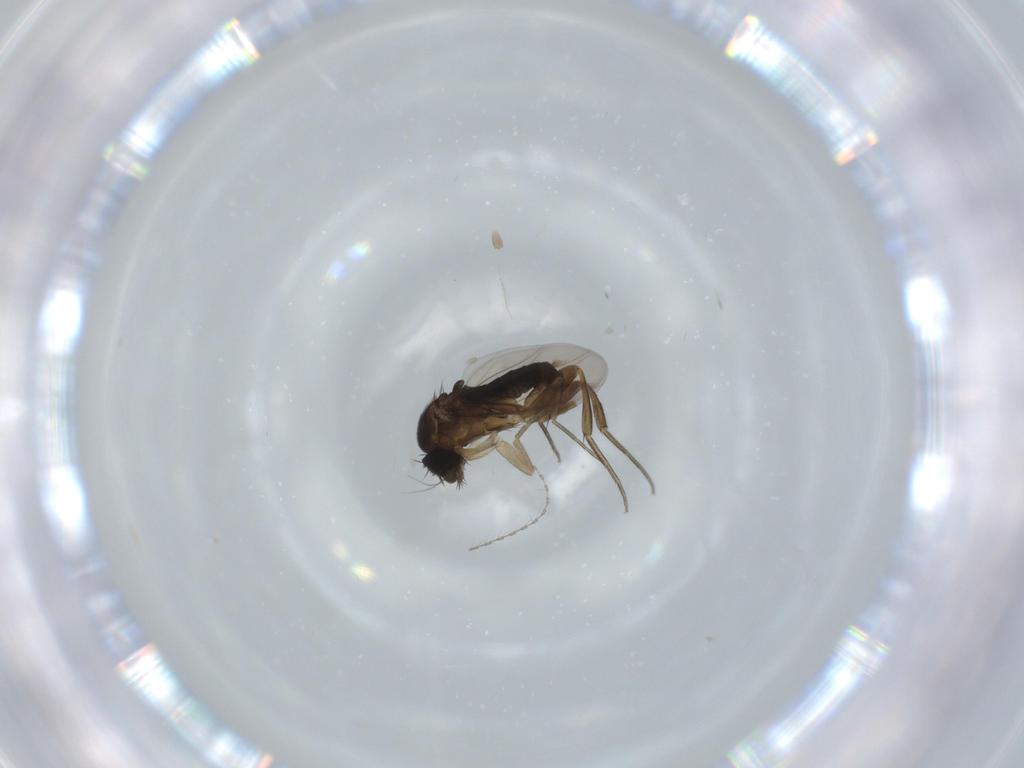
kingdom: Animalia
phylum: Arthropoda
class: Insecta
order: Diptera
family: Phoridae
